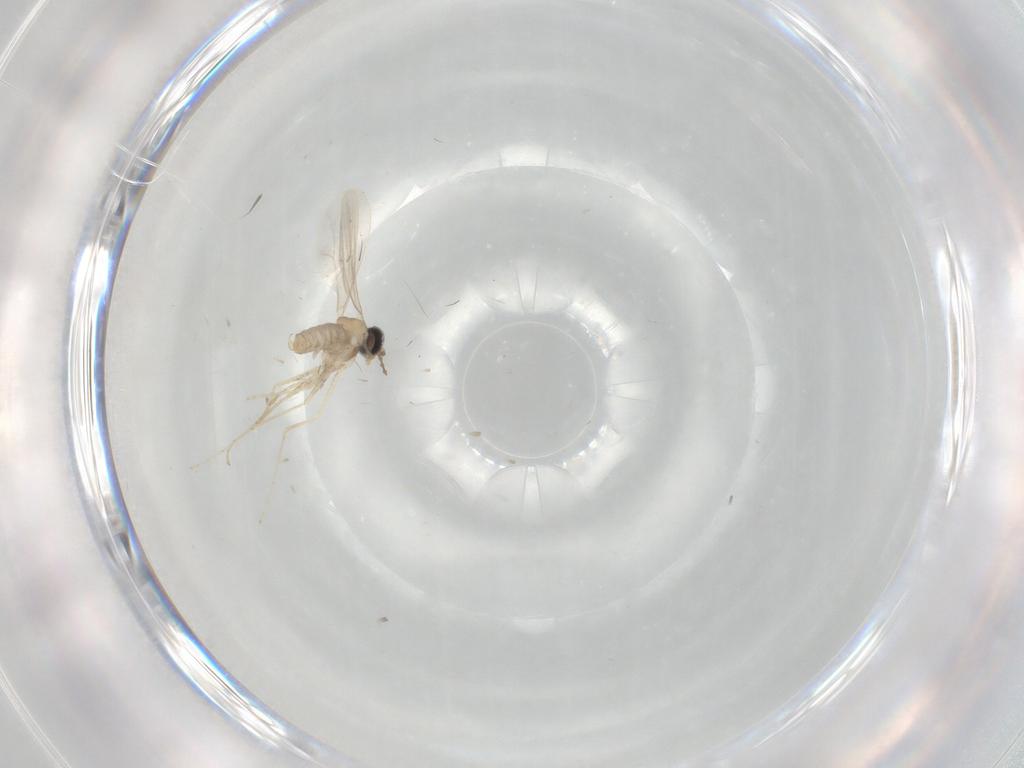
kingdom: Animalia
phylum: Arthropoda
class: Insecta
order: Diptera
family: Cecidomyiidae
